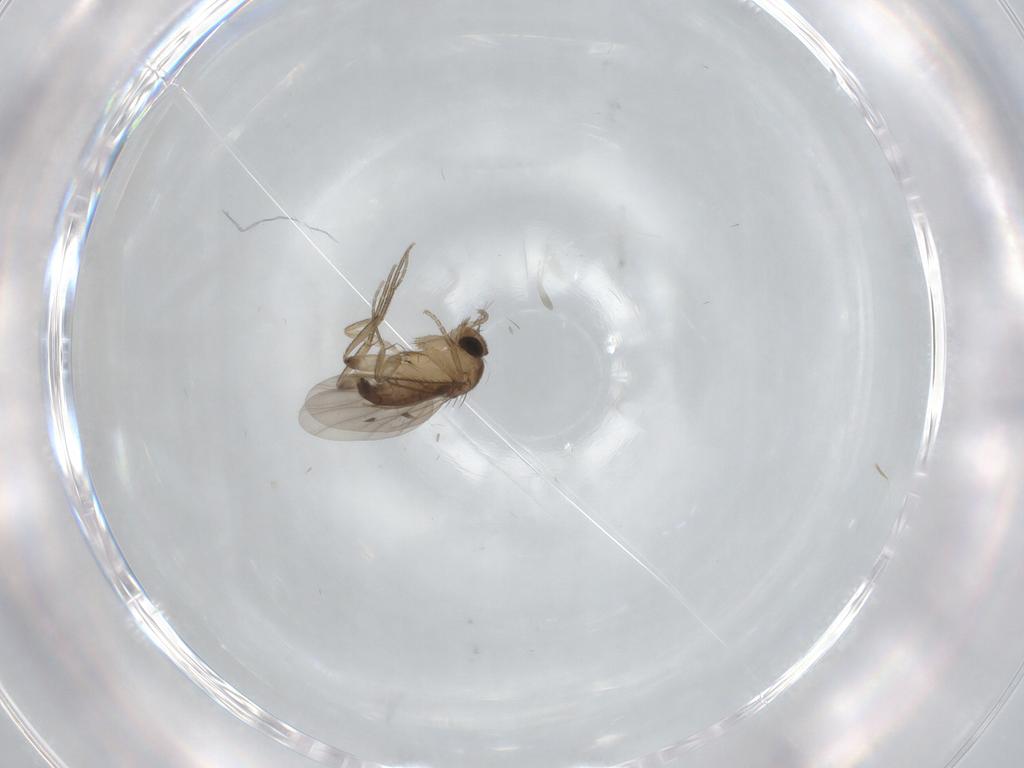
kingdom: Animalia
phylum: Arthropoda
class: Insecta
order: Diptera
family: Phoridae
